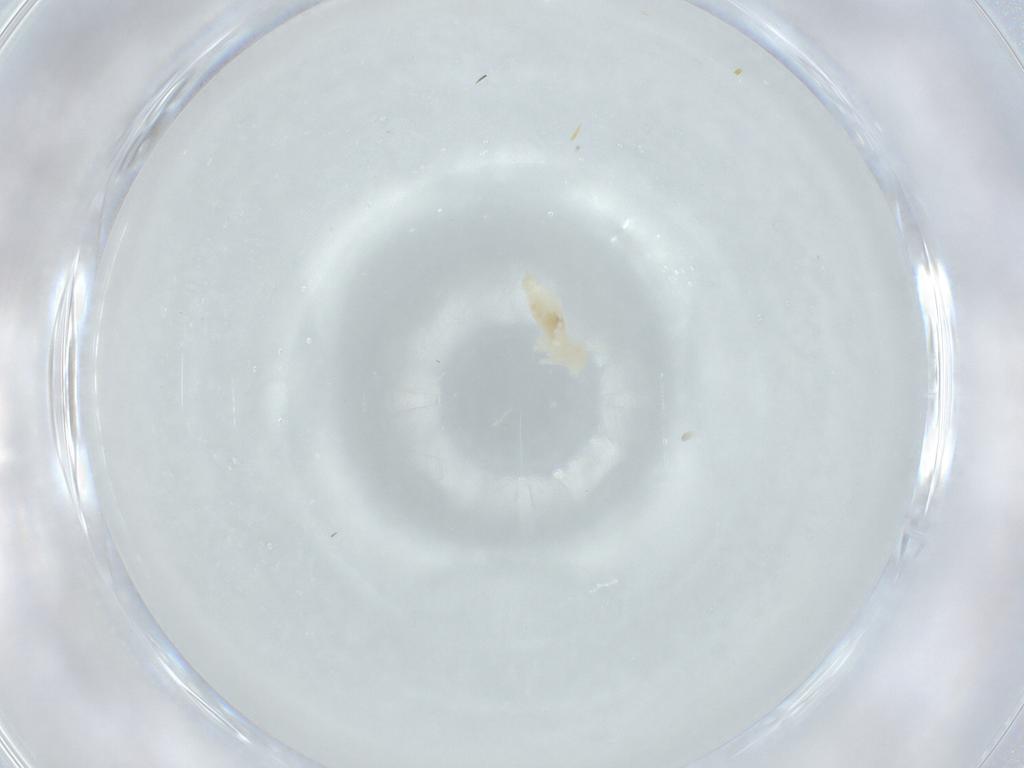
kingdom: Animalia
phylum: Arthropoda
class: Insecta
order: Diptera
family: Cecidomyiidae
